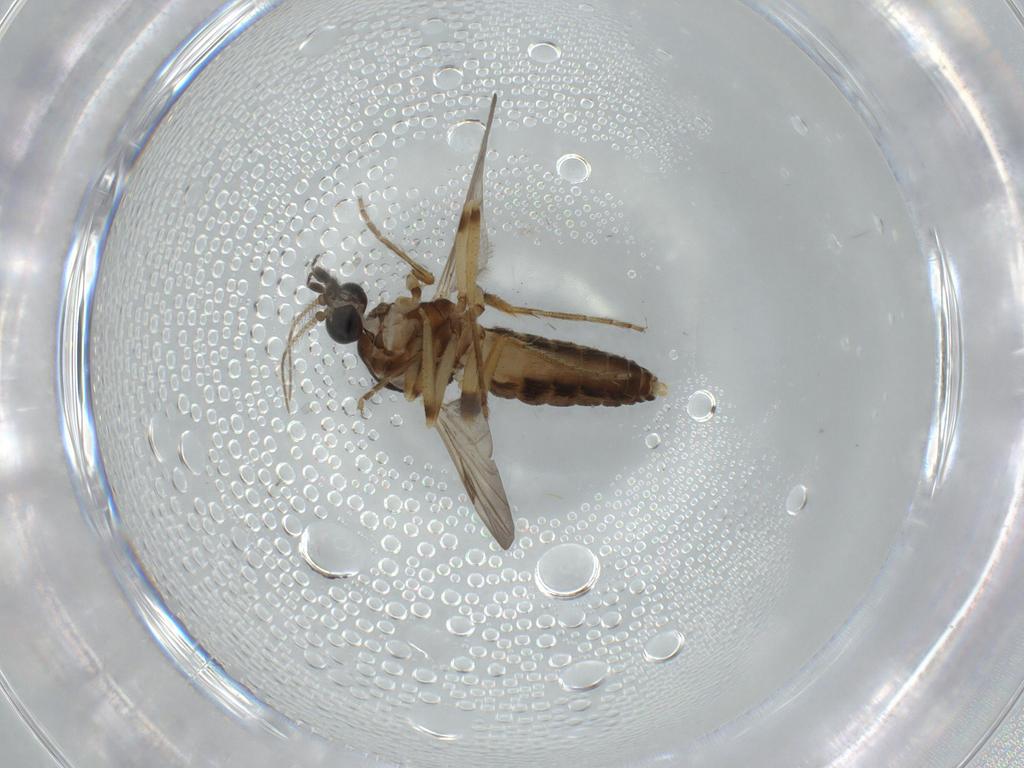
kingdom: Animalia
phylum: Arthropoda
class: Insecta
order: Diptera
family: Ceratopogonidae
